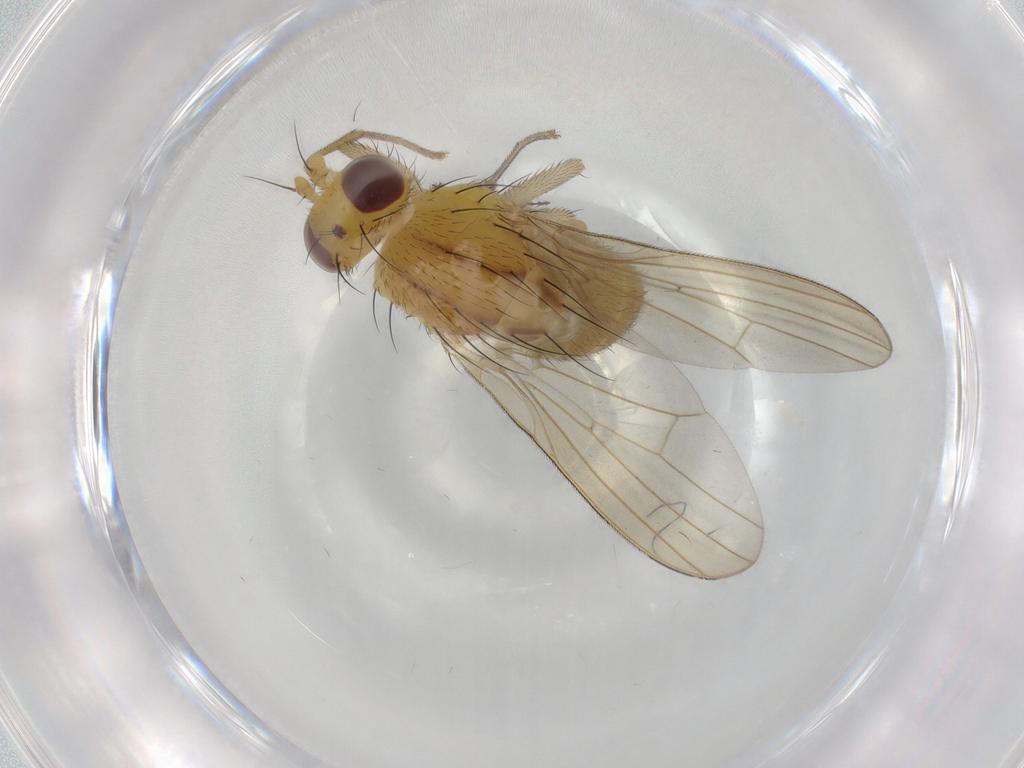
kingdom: Animalia
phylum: Arthropoda
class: Insecta
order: Diptera
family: Lauxaniidae
